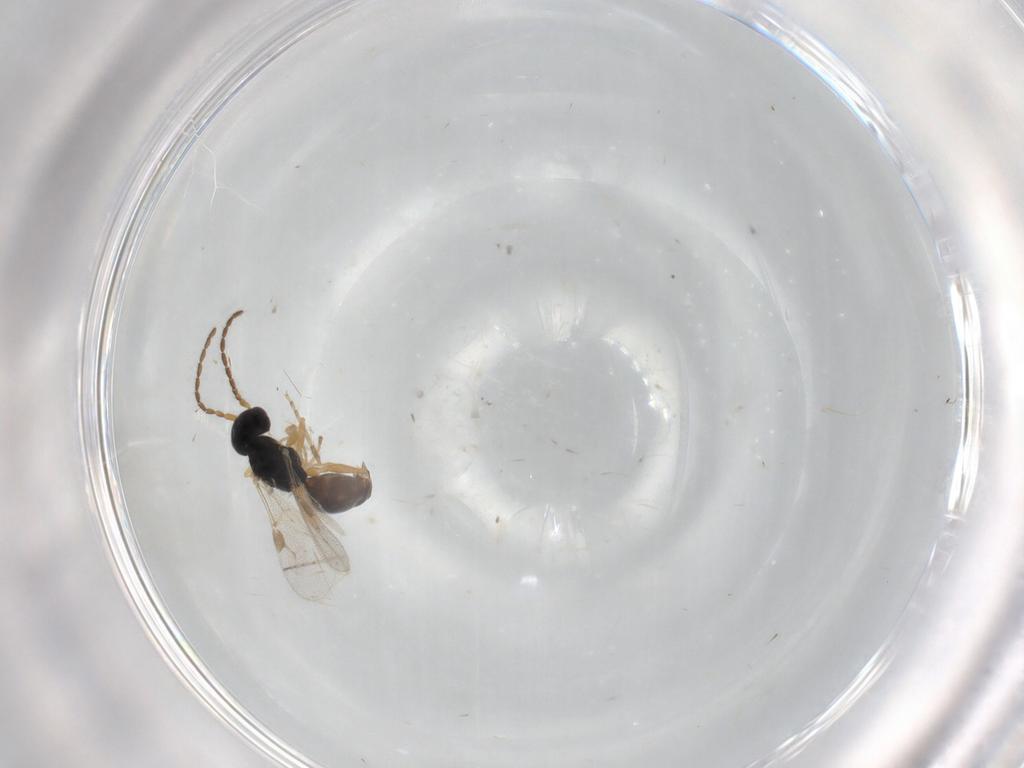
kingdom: Animalia
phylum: Arthropoda
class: Insecta
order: Hymenoptera
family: Dryinidae
